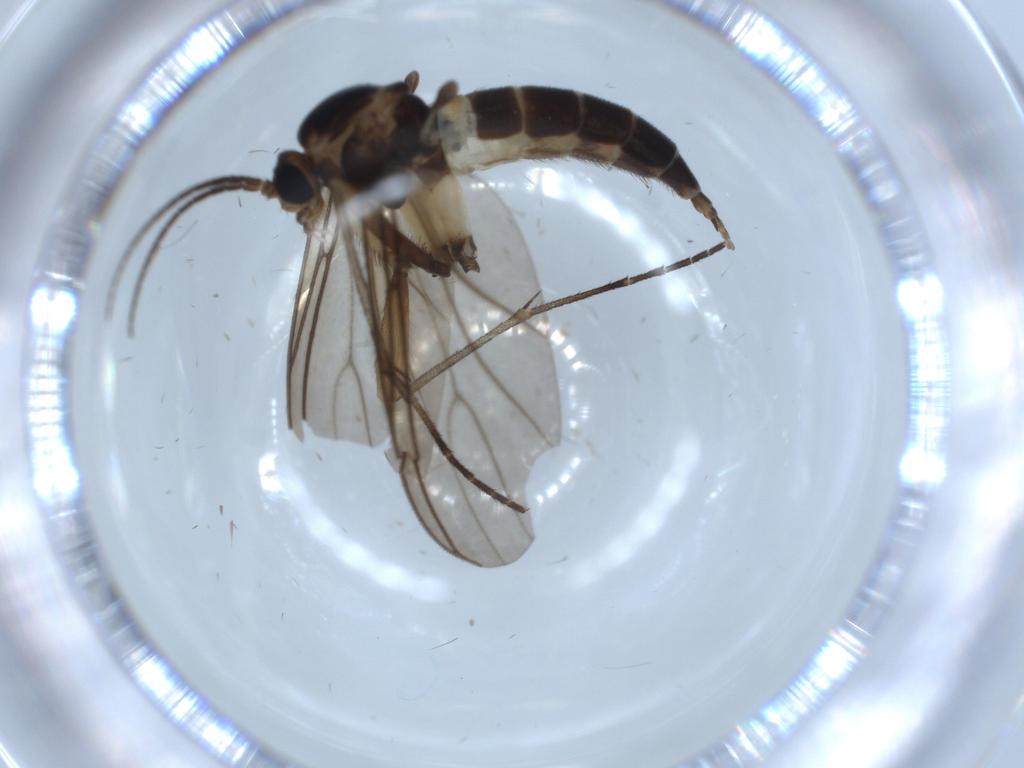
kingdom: Animalia
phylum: Arthropoda
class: Insecta
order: Diptera
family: Sciaridae
